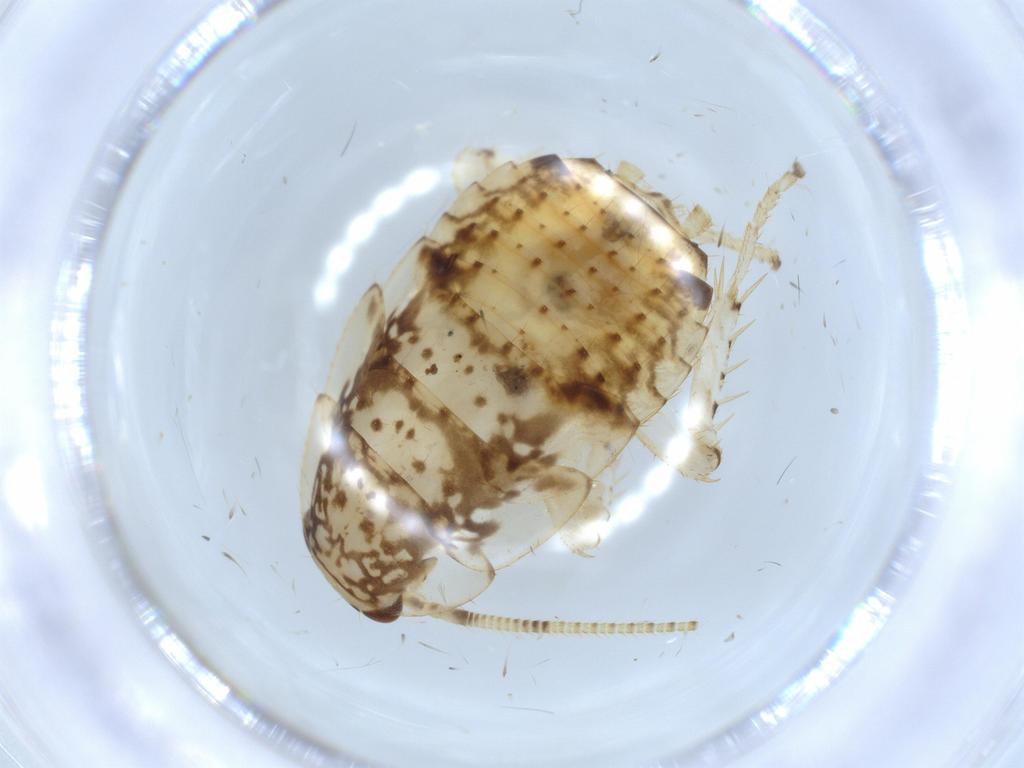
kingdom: Animalia
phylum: Arthropoda
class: Insecta
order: Blattodea
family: Ectobiidae
